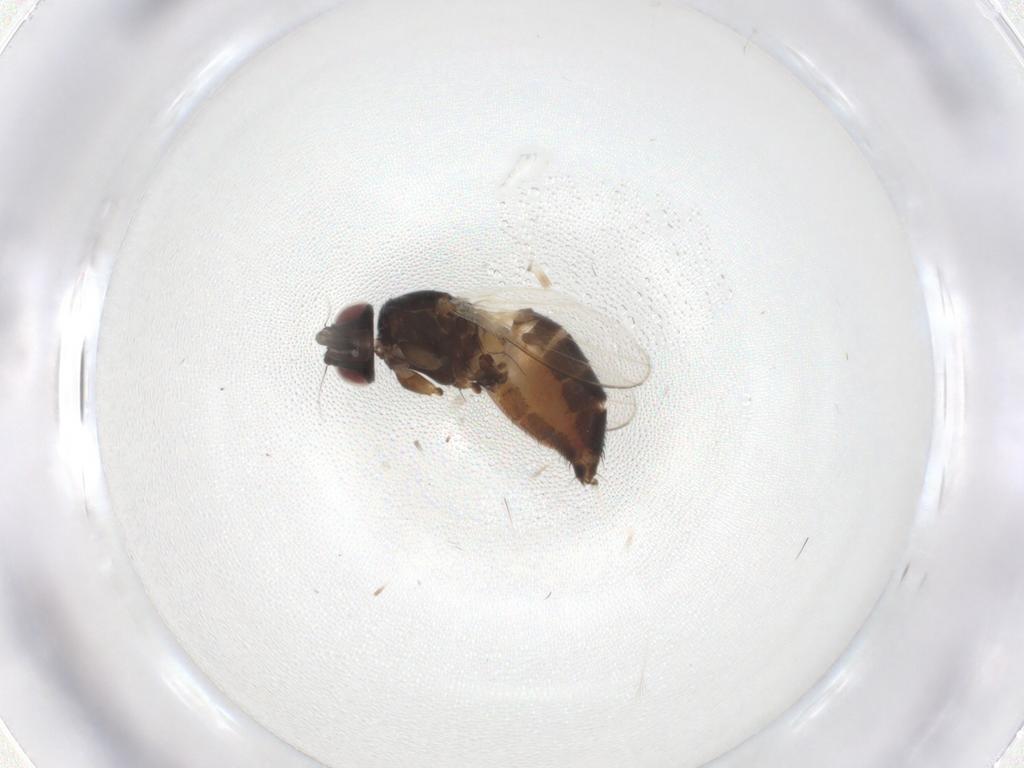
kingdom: Animalia
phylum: Arthropoda
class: Insecta
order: Diptera
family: Milichiidae
